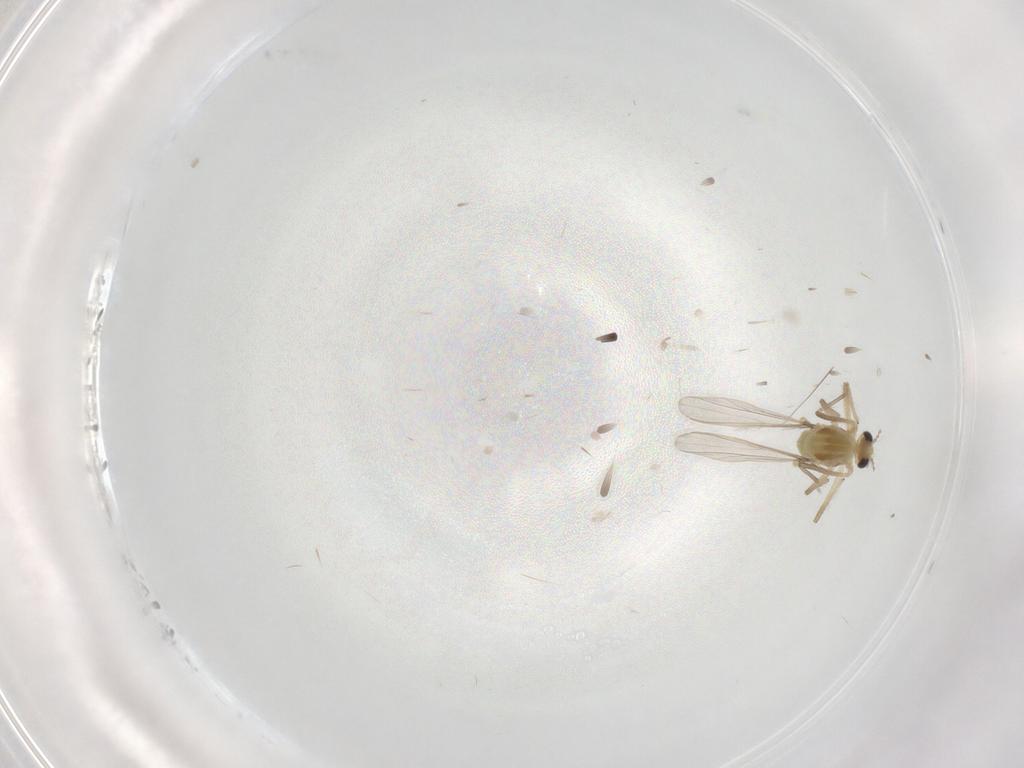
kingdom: Animalia
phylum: Arthropoda
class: Insecta
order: Diptera
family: Chironomidae
